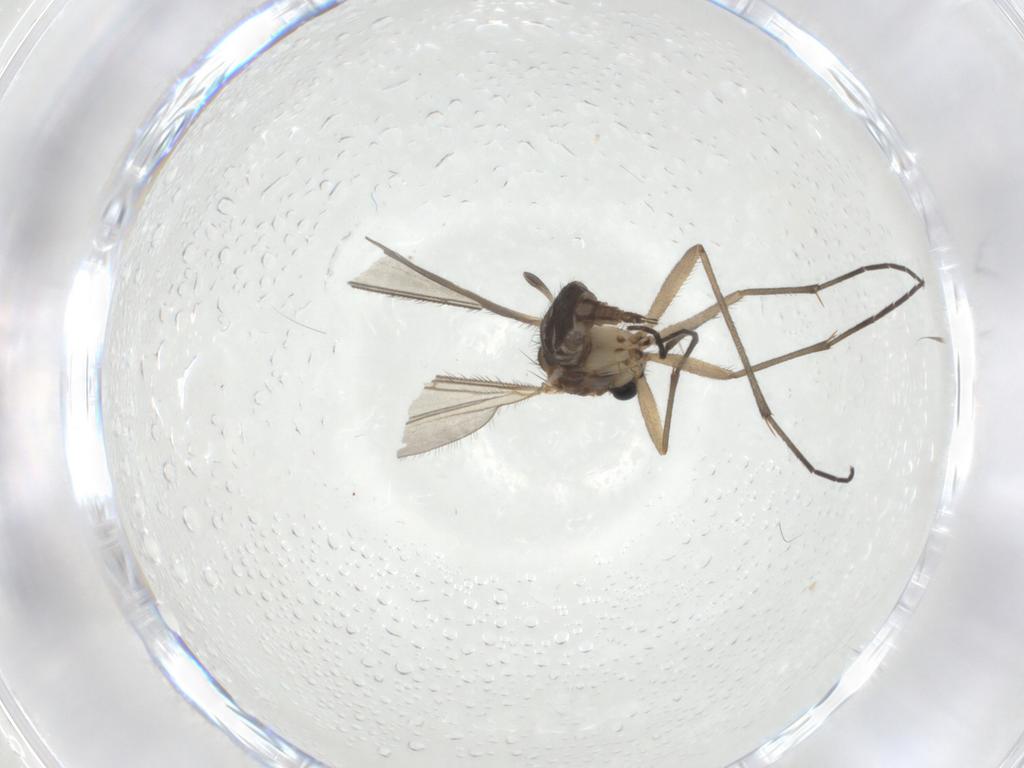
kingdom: Animalia
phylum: Arthropoda
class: Insecta
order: Diptera
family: Sciaridae
